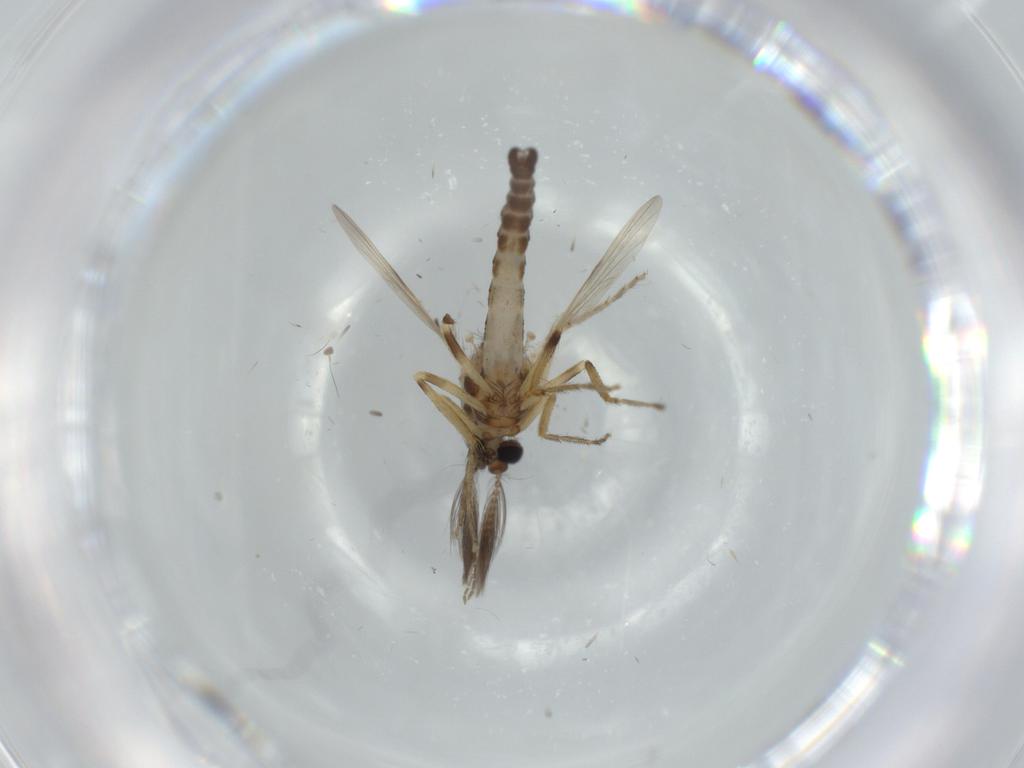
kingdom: Animalia
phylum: Arthropoda
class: Insecta
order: Diptera
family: Ceratopogonidae
